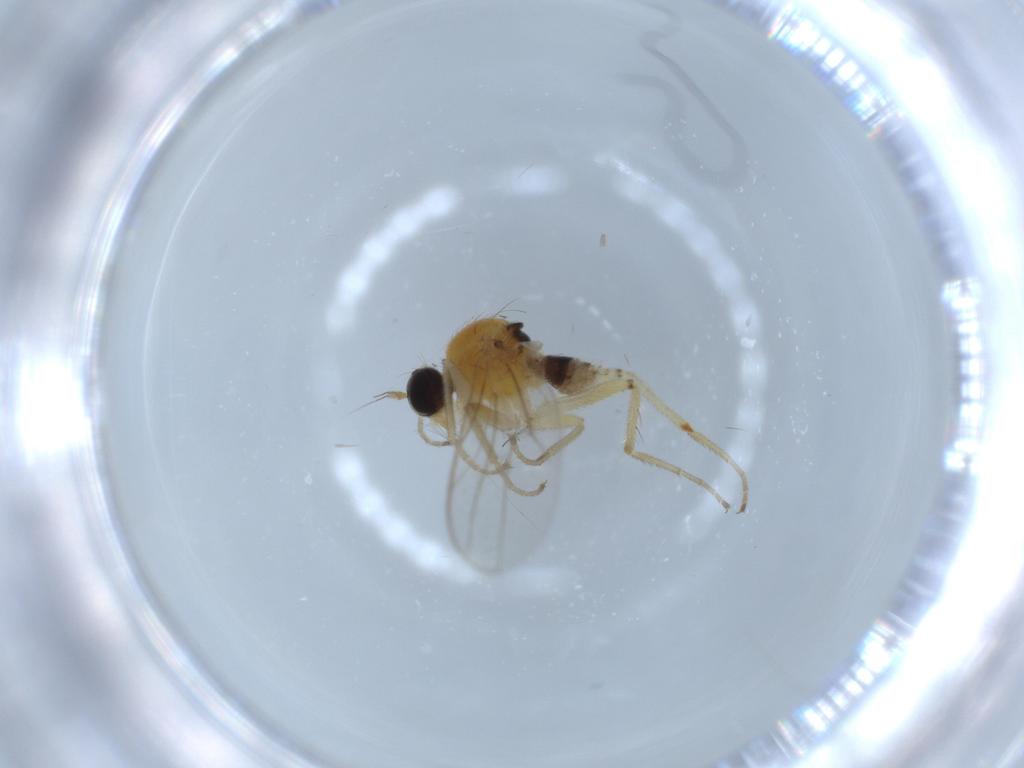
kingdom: Animalia
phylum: Arthropoda
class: Insecta
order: Diptera
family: Hybotidae
